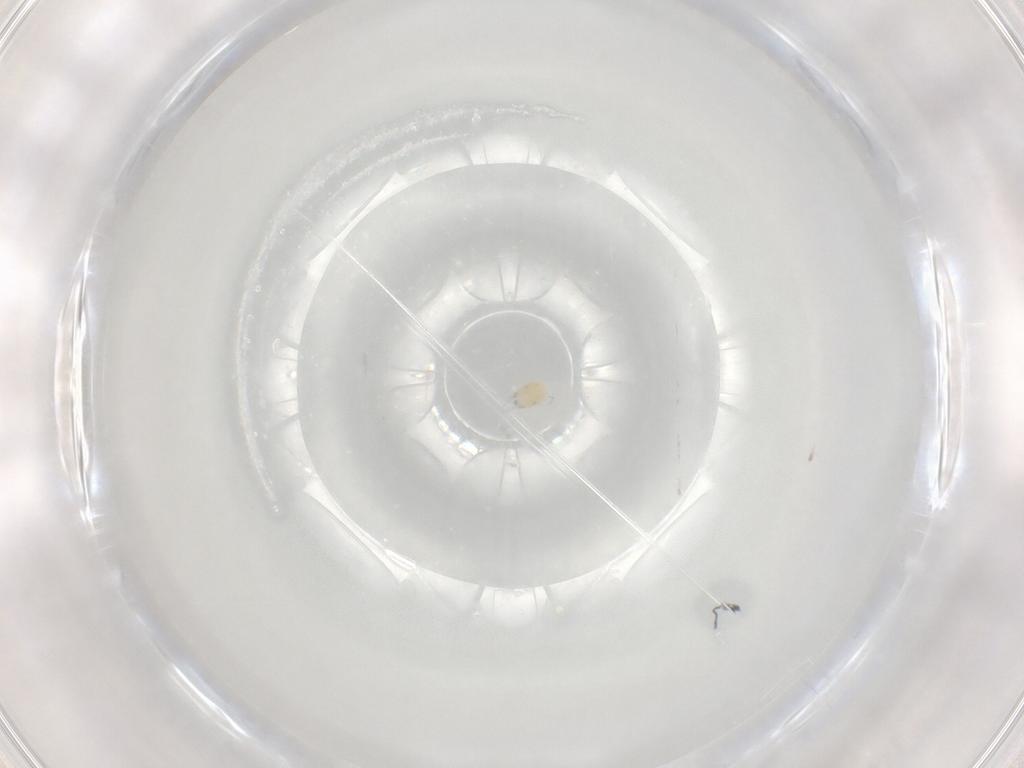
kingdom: Animalia
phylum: Arthropoda
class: Arachnida
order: Trombidiformes
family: Limnesiidae
